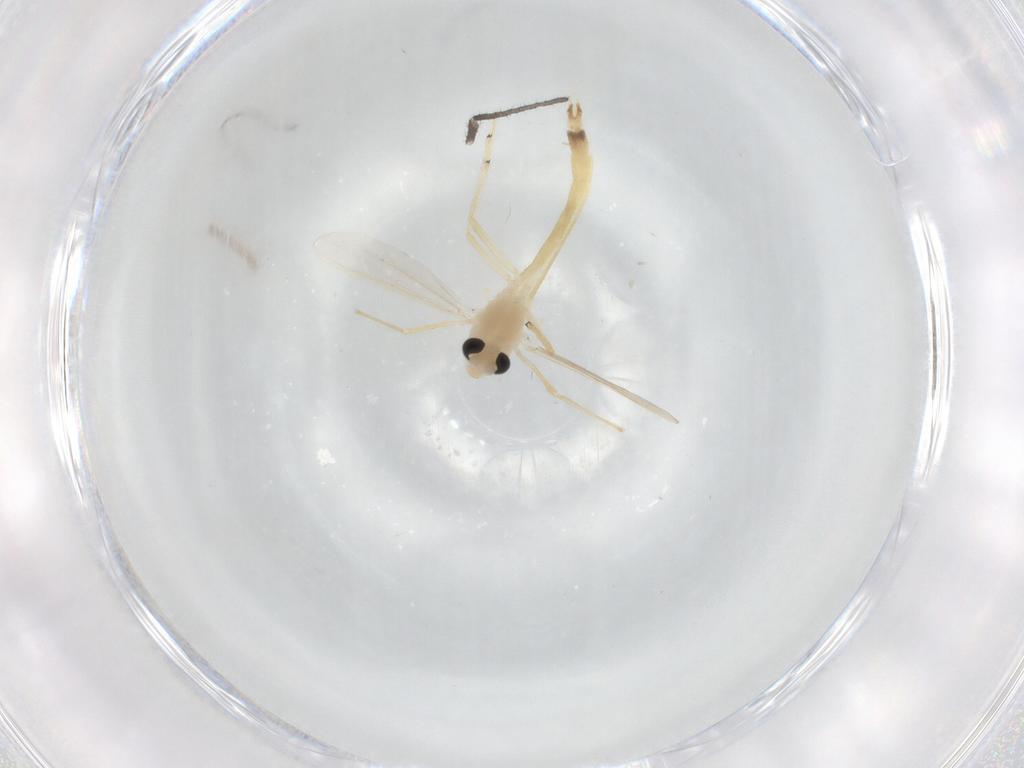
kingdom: Animalia
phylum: Arthropoda
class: Insecta
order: Diptera
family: Chironomidae
